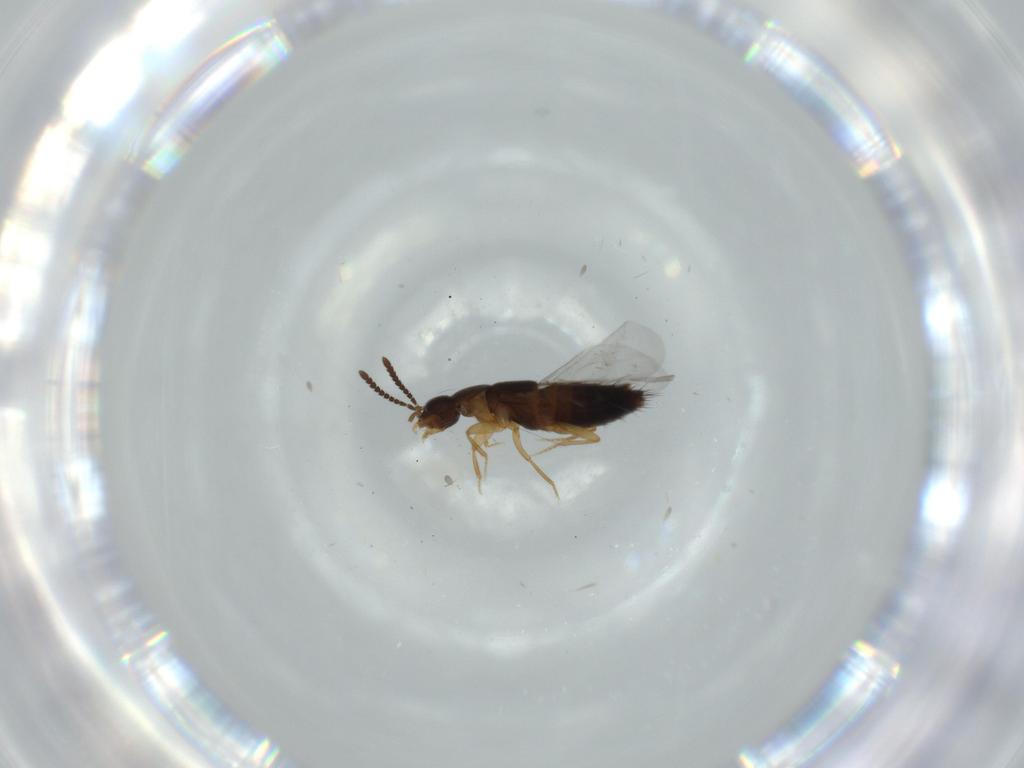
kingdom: Animalia
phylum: Arthropoda
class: Insecta
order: Coleoptera
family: Staphylinidae
